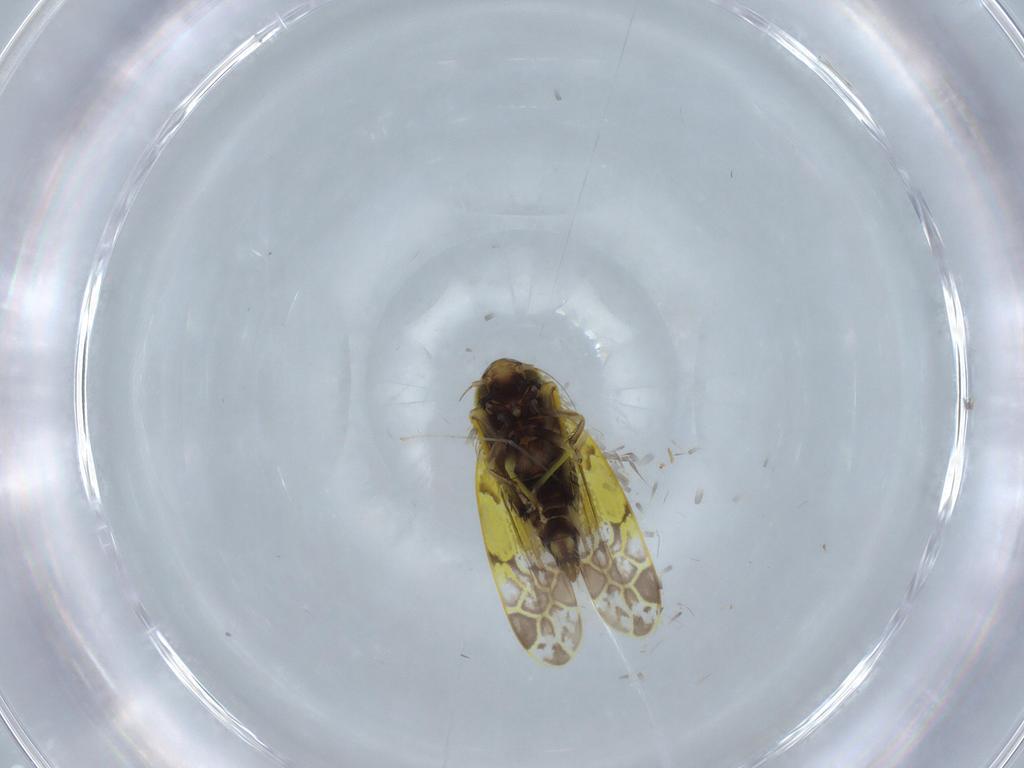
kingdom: Animalia
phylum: Arthropoda
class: Insecta
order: Hemiptera
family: Cicadellidae
